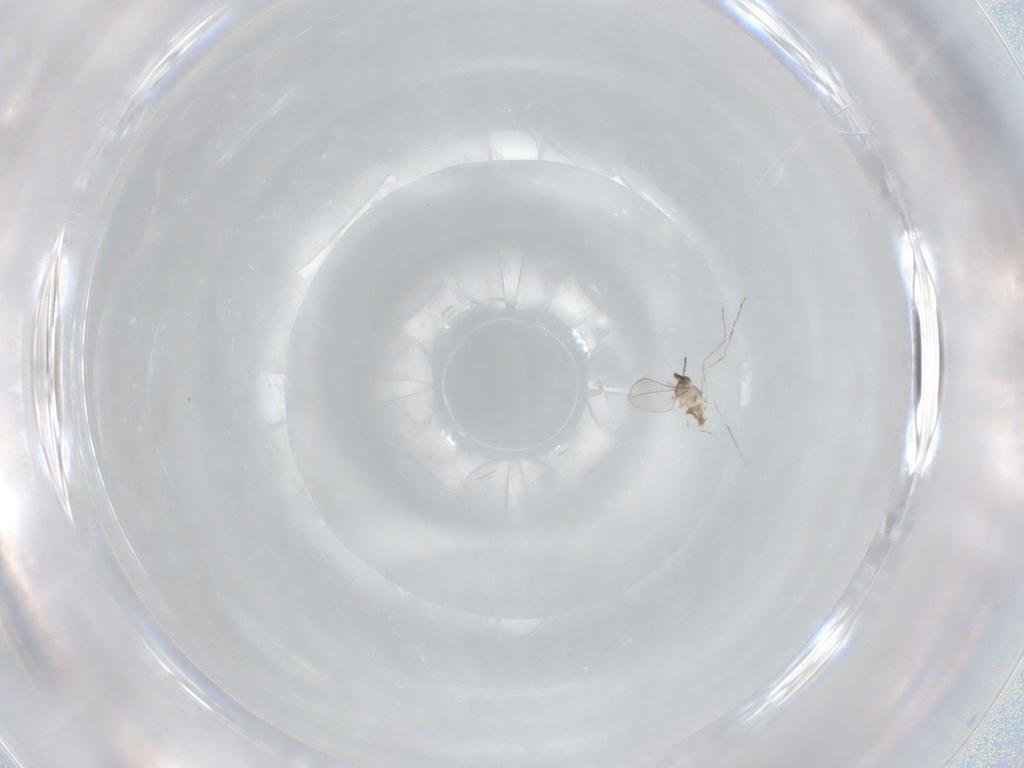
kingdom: Animalia
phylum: Arthropoda
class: Insecta
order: Diptera
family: Cecidomyiidae
